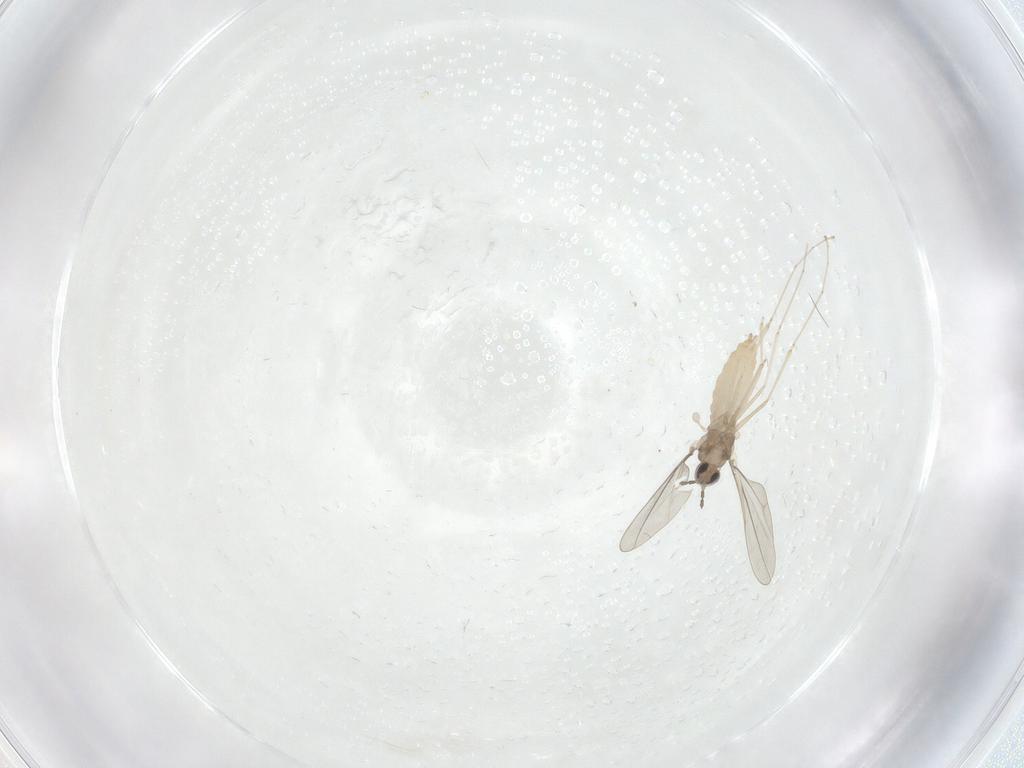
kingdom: Animalia
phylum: Arthropoda
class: Insecta
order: Diptera
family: Cecidomyiidae
